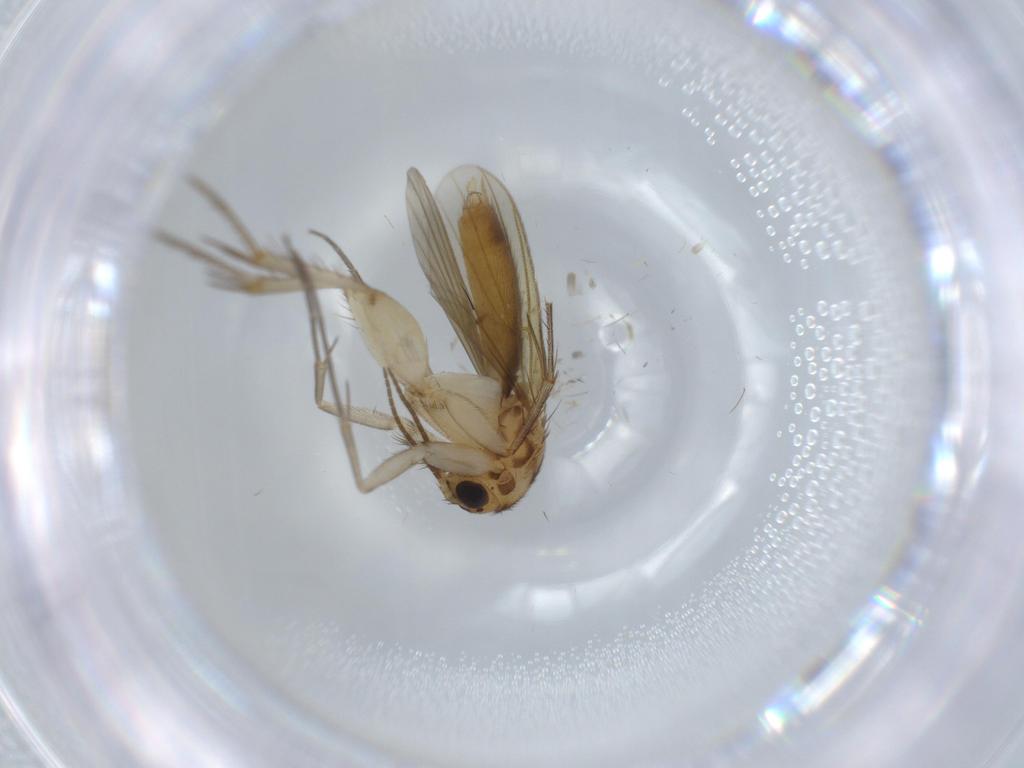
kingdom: Animalia
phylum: Arthropoda
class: Insecta
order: Diptera
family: Mycetophilidae
